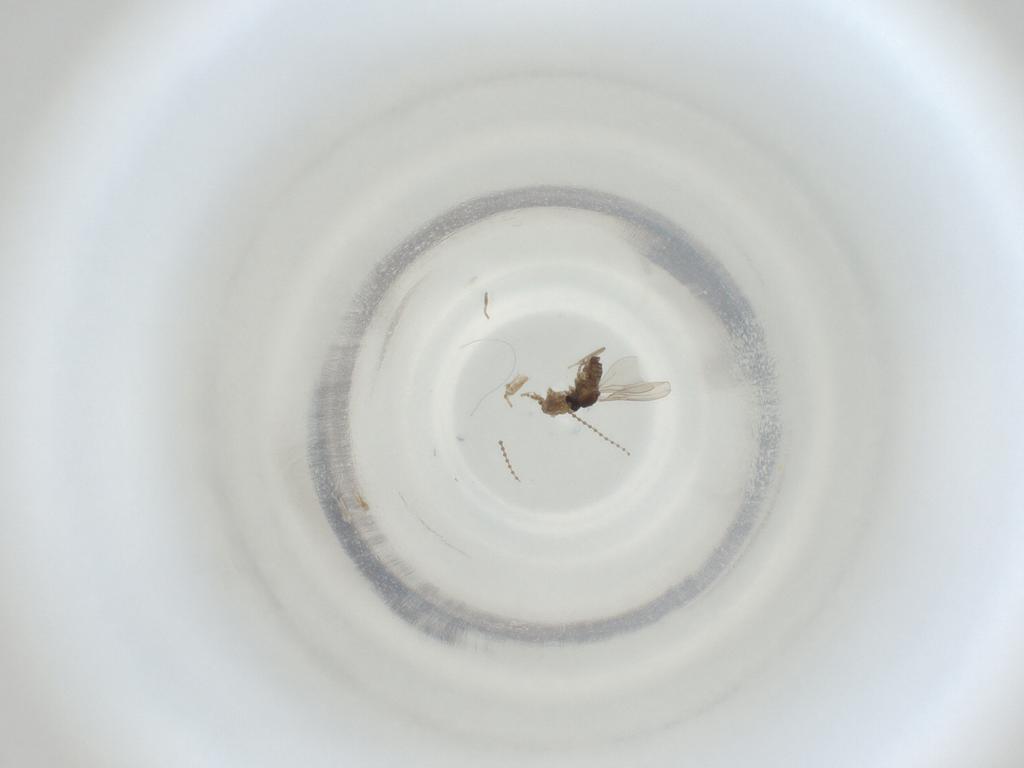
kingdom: Animalia
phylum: Arthropoda
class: Insecta
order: Diptera
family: Cecidomyiidae
